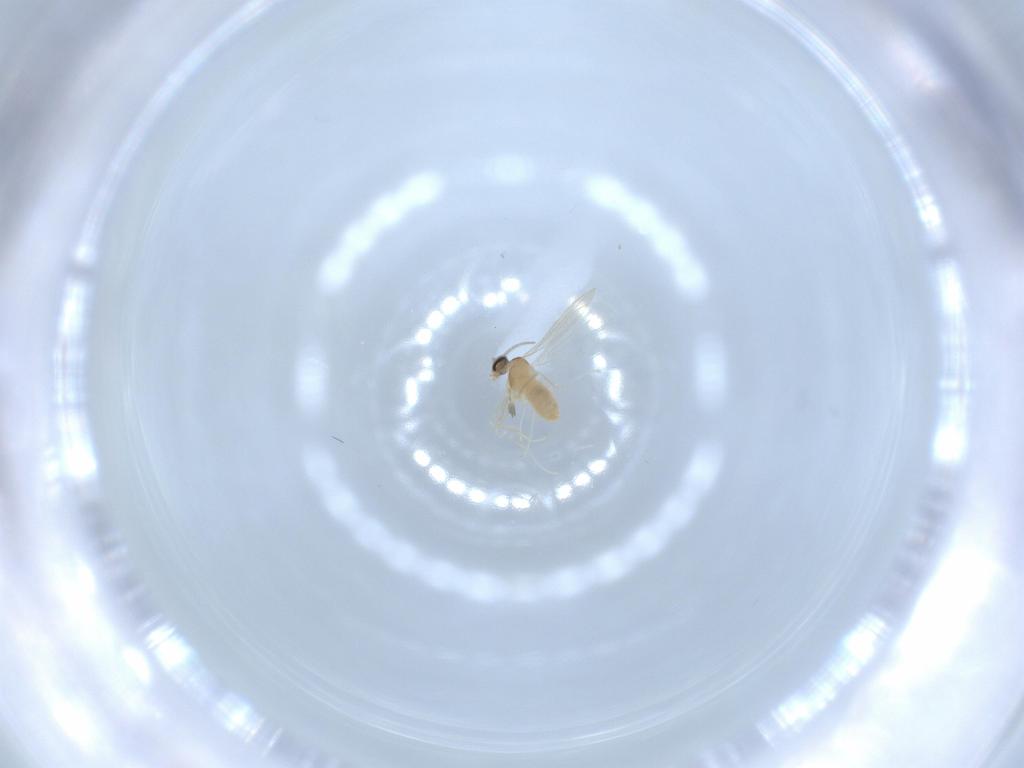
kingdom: Animalia
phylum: Arthropoda
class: Insecta
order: Diptera
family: Cecidomyiidae
